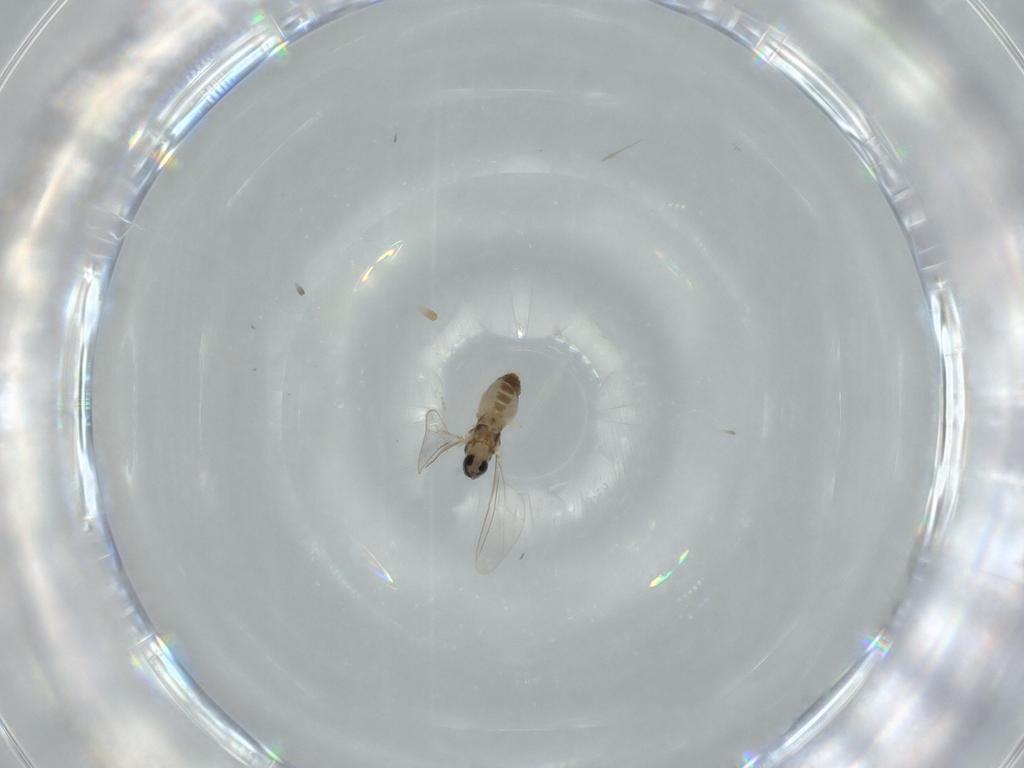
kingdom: Animalia
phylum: Arthropoda
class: Insecta
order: Diptera
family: Cecidomyiidae
